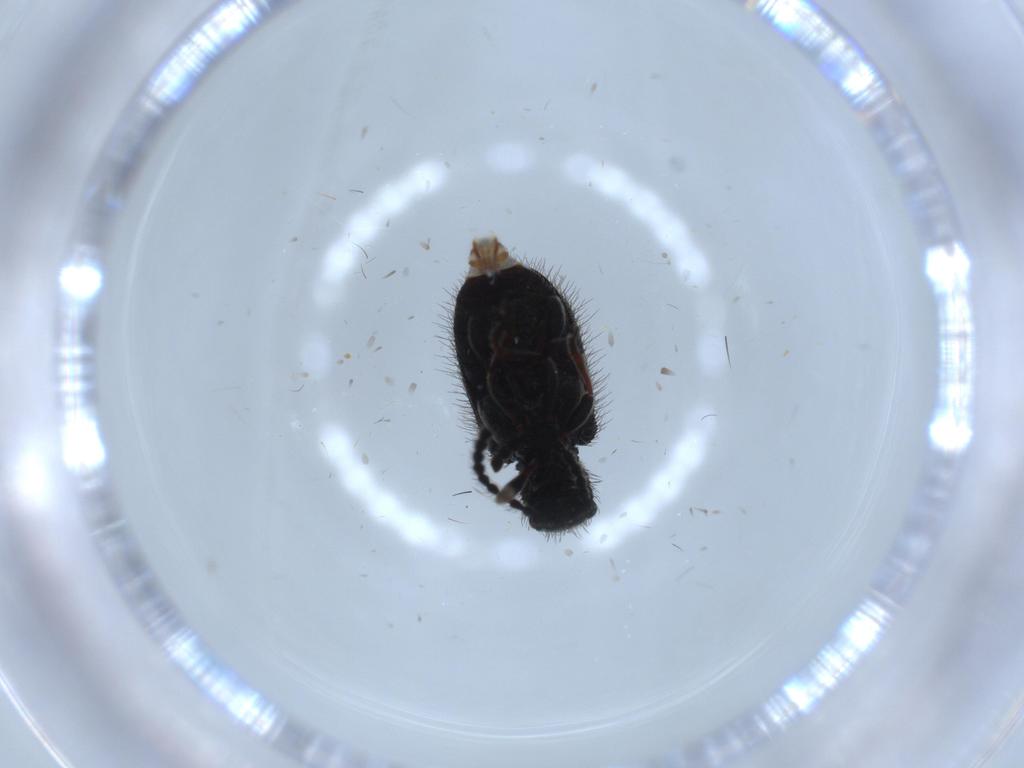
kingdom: Animalia
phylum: Arthropoda
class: Insecta
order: Coleoptera
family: Ptinidae
